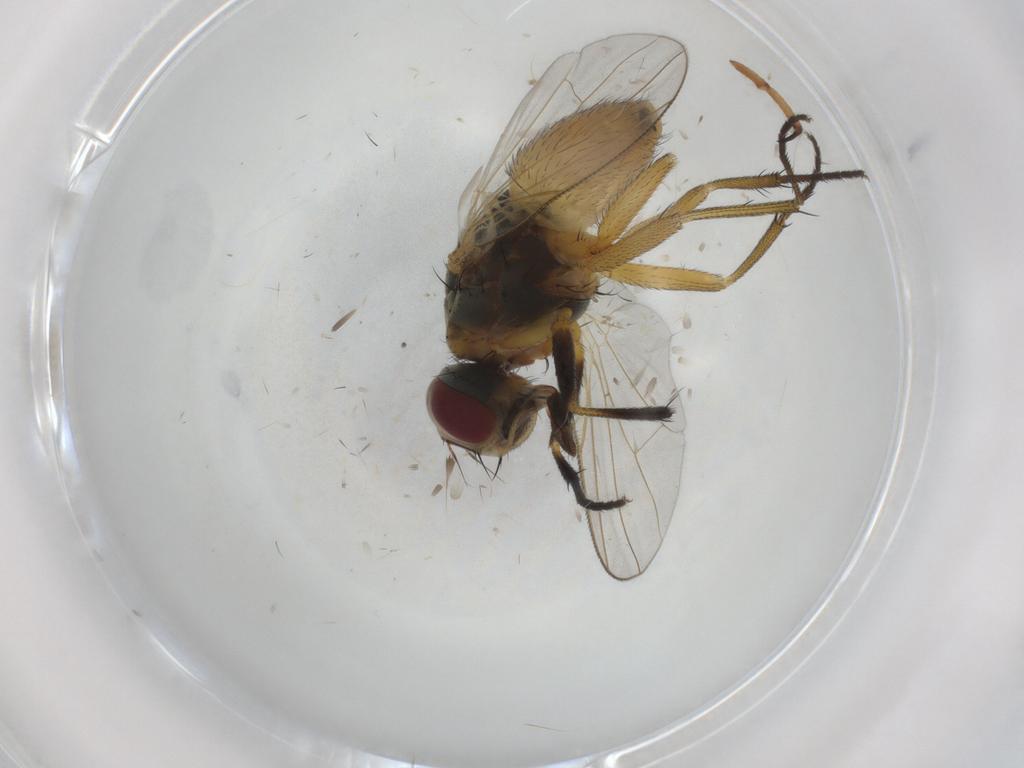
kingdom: Animalia
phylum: Arthropoda
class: Insecta
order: Diptera
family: Muscidae
